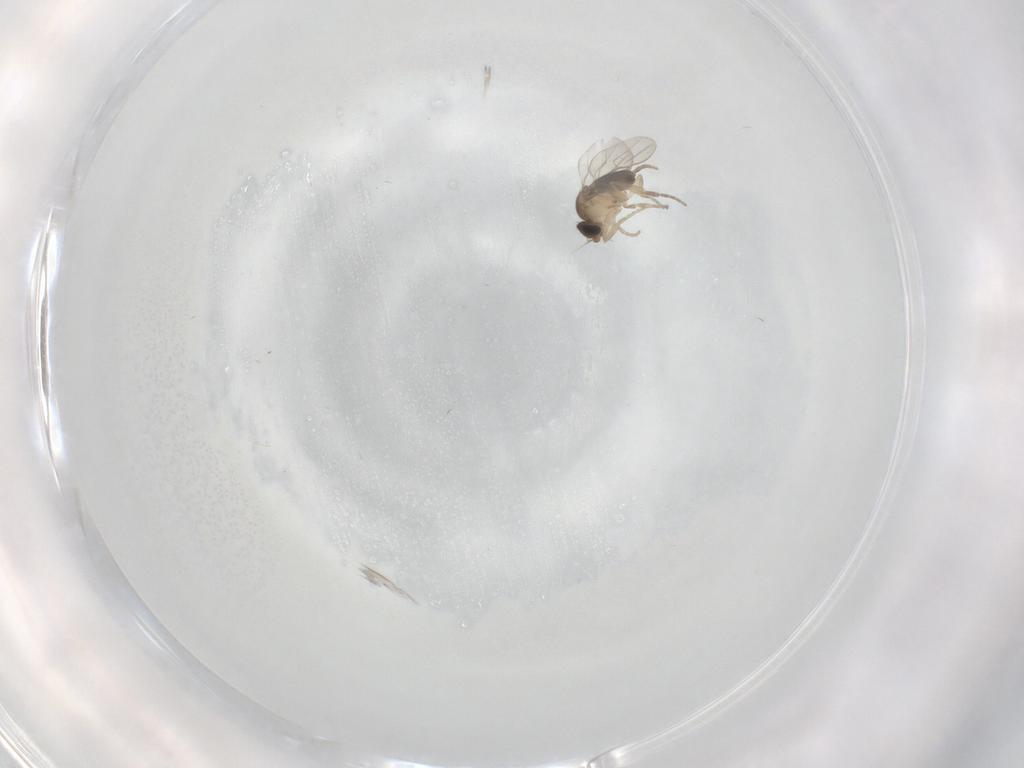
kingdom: Animalia
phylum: Arthropoda
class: Insecta
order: Diptera
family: Phoridae
